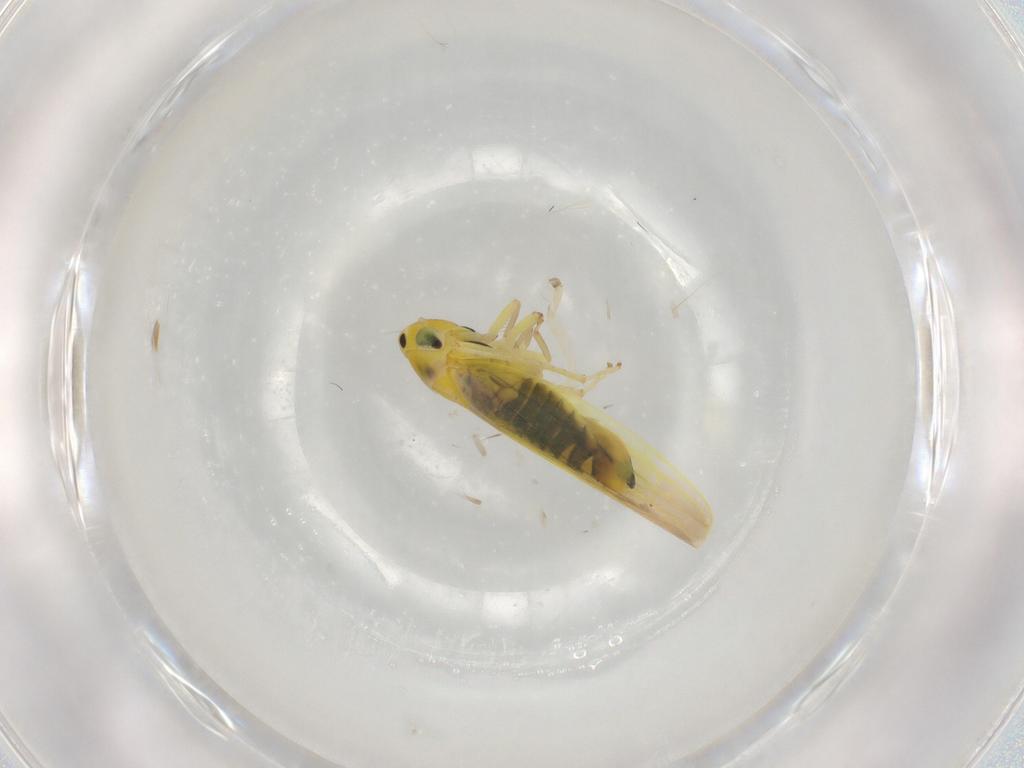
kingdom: Animalia
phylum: Arthropoda
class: Insecta
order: Hemiptera
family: Cicadellidae
